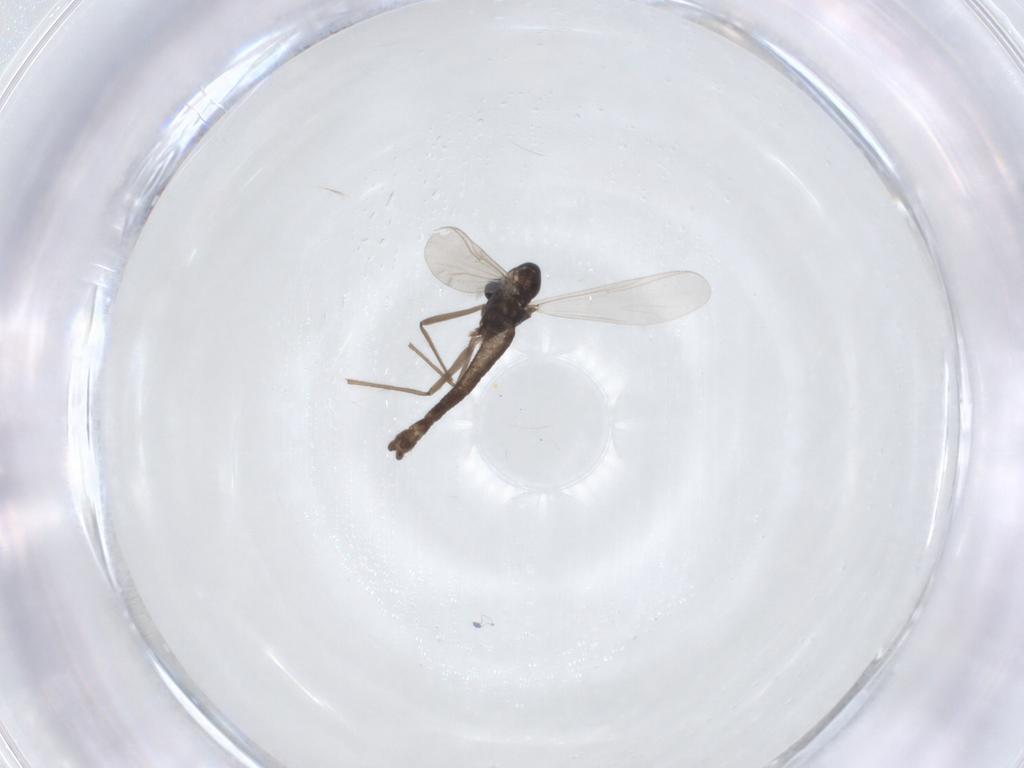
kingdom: Animalia
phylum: Arthropoda
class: Insecta
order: Diptera
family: Chironomidae
